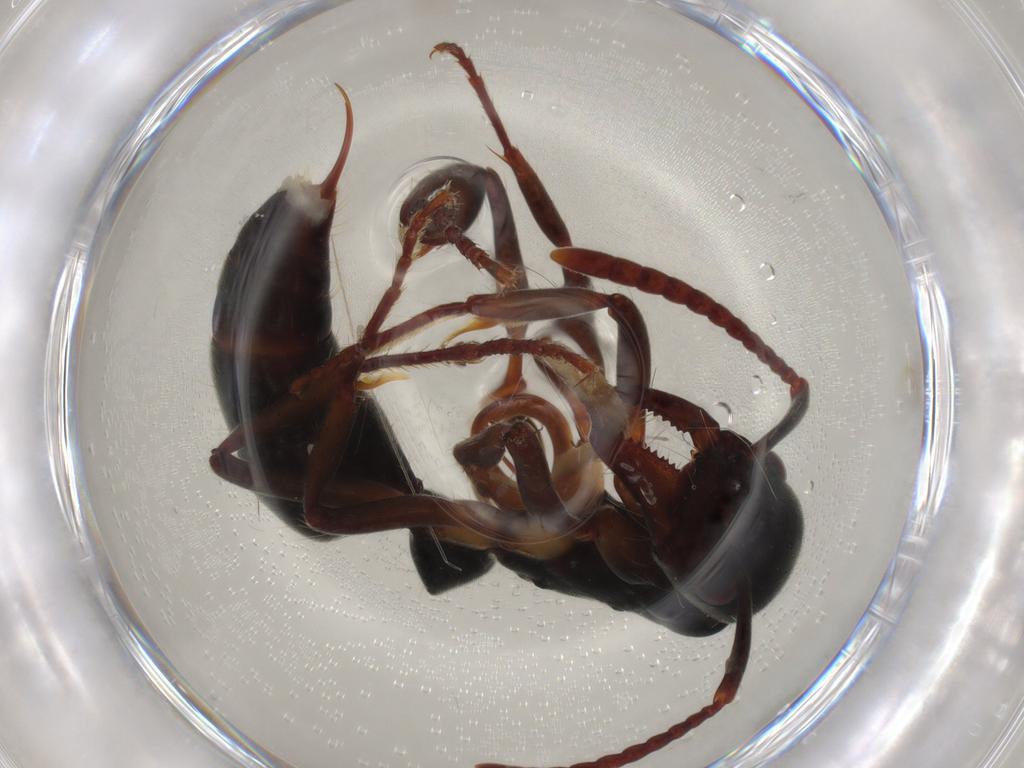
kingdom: Animalia
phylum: Arthropoda
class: Insecta
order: Hymenoptera
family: Formicidae
